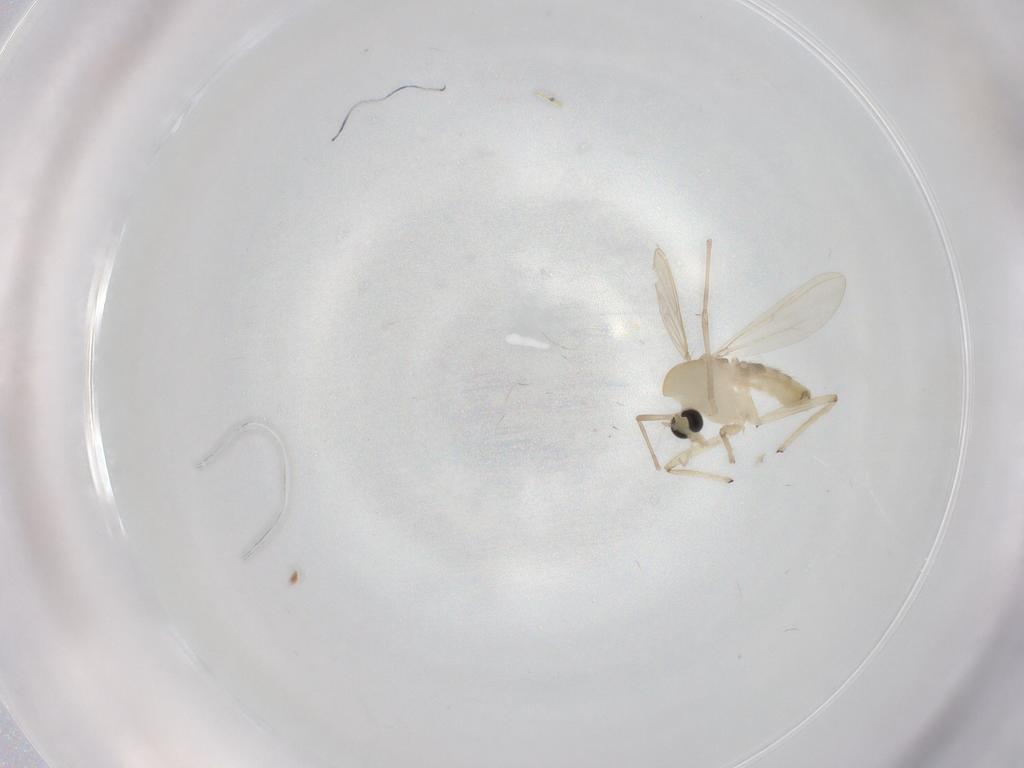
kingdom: Animalia
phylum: Arthropoda
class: Insecta
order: Diptera
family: Chironomidae
